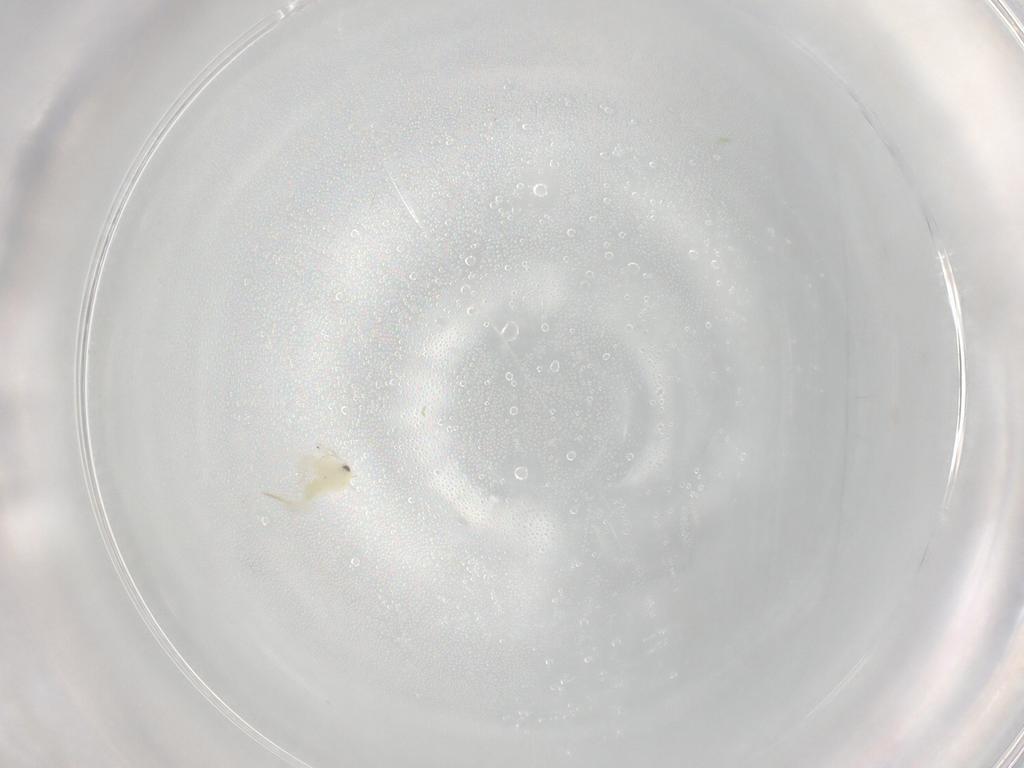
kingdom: Animalia
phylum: Arthropoda
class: Insecta
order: Hemiptera
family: Aleyrodidae
